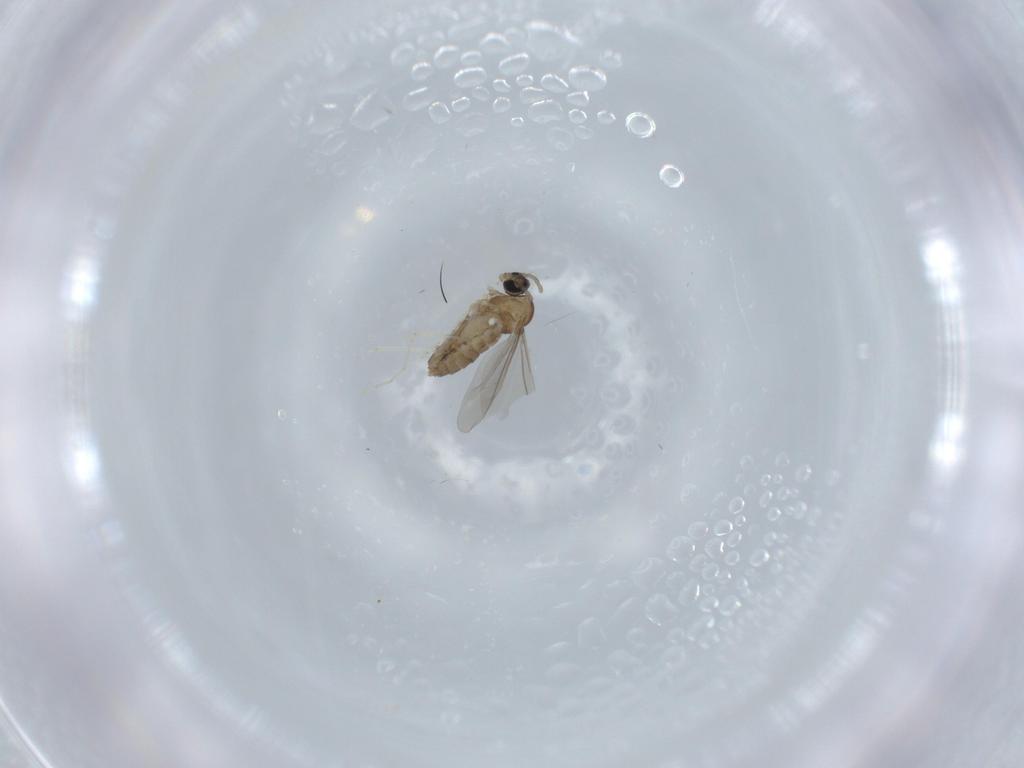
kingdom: Animalia
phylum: Arthropoda
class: Insecta
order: Diptera
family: Cecidomyiidae
